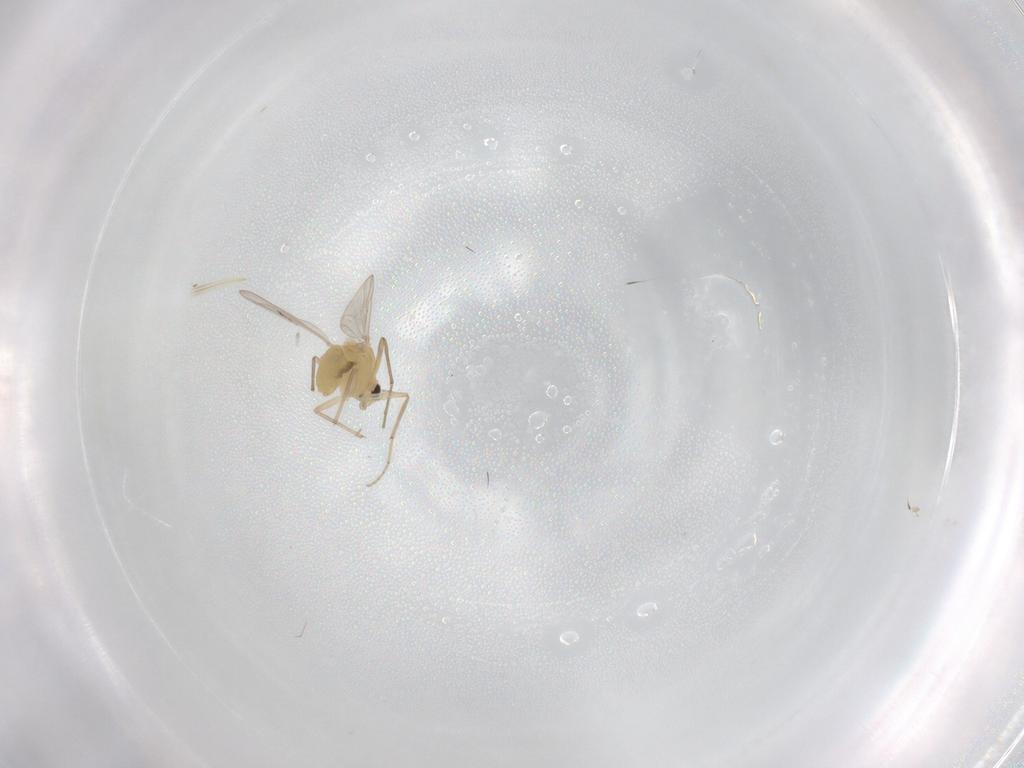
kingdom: Animalia
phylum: Arthropoda
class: Insecta
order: Diptera
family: Chironomidae
